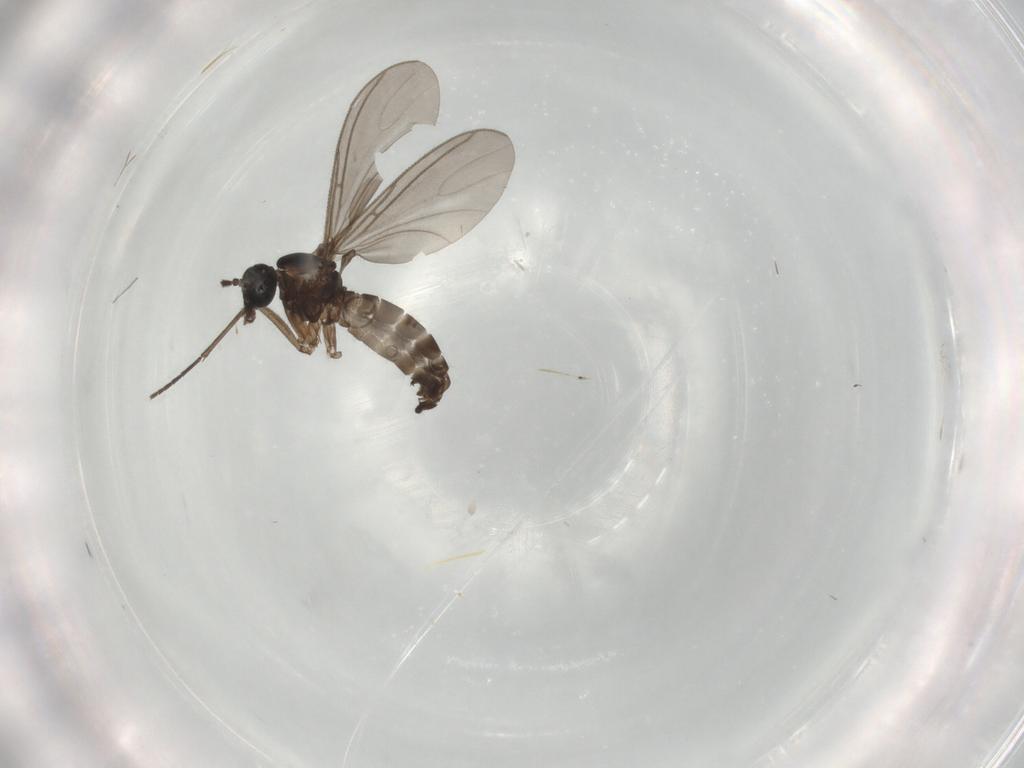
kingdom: Animalia
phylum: Arthropoda
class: Insecta
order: Diptera
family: Phoridae
